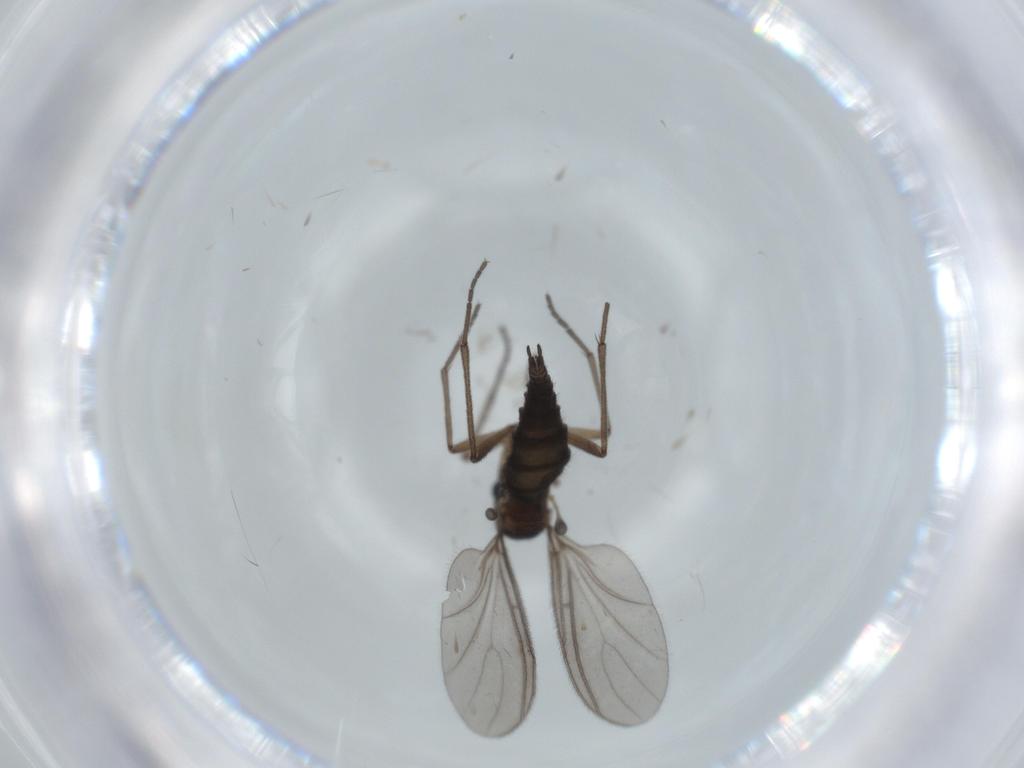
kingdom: Animalia
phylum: Arthropoda
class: Insecta
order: Diptera
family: Sciaridae
